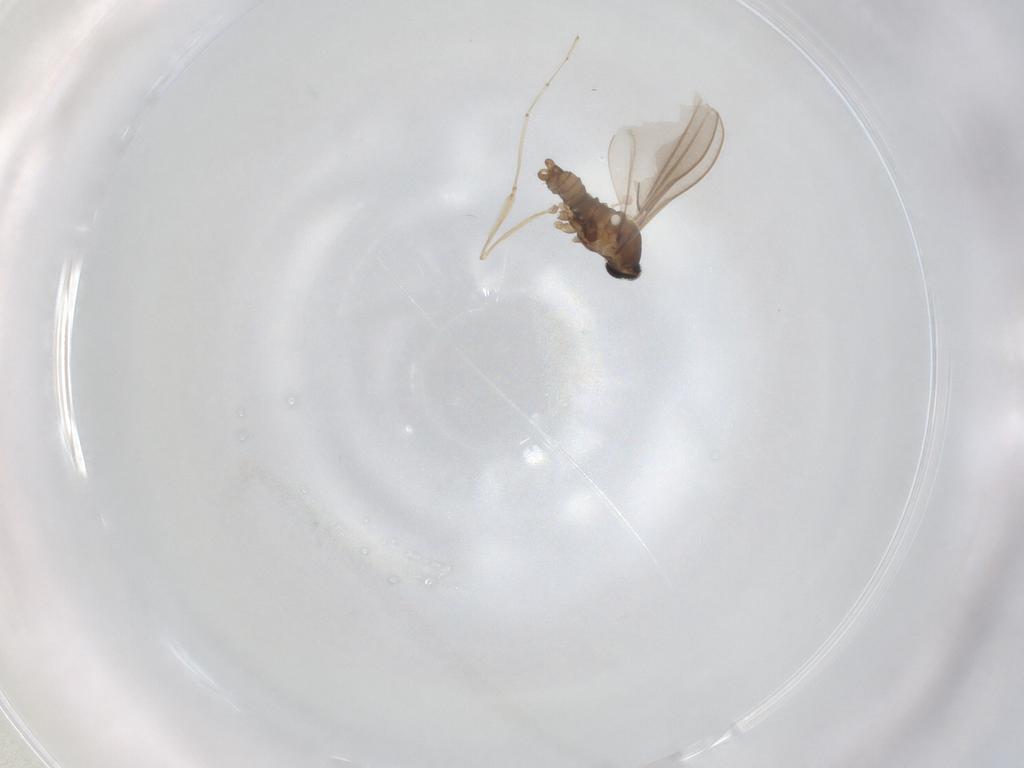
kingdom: Animalia
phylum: Arthropoda
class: Insecta
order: Diptera
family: Cecidomyiidae
